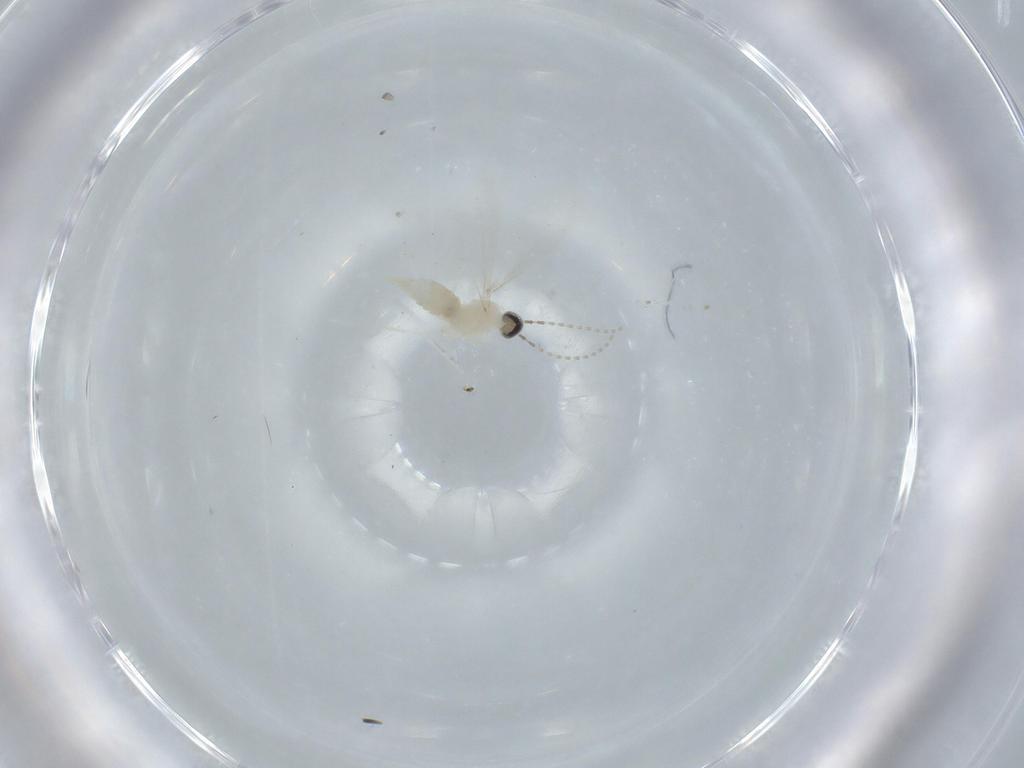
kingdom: Animalia
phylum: Arthropoda
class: Insecta
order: Diptera
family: Cecidomyiidae
